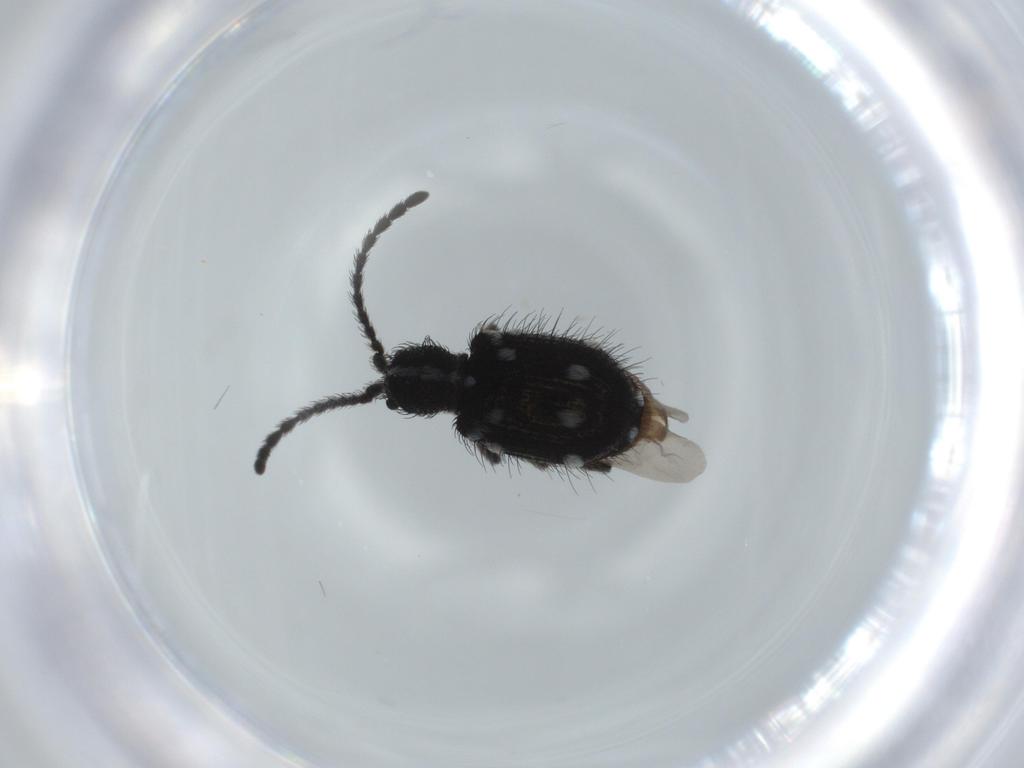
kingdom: Animalia
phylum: Arthropoda
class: Insecta
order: Coleoptera
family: Ptinidae
